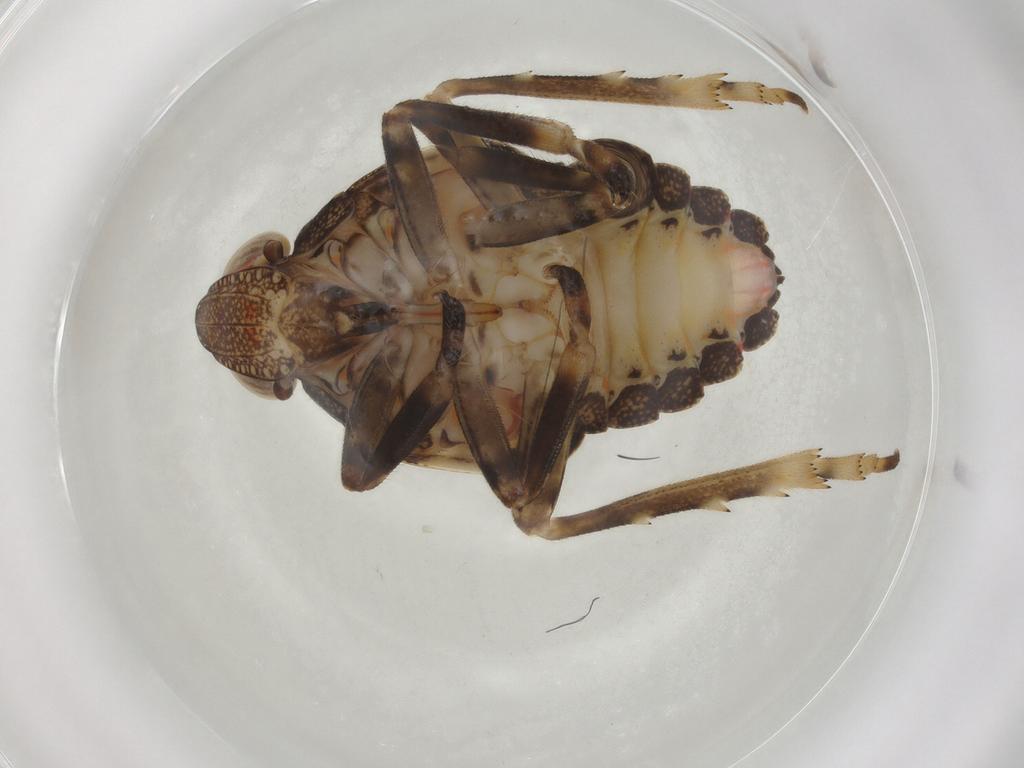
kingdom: Animalia
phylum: Arthropoda
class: Insecta
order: Hemiptera
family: Tropiduchidae
